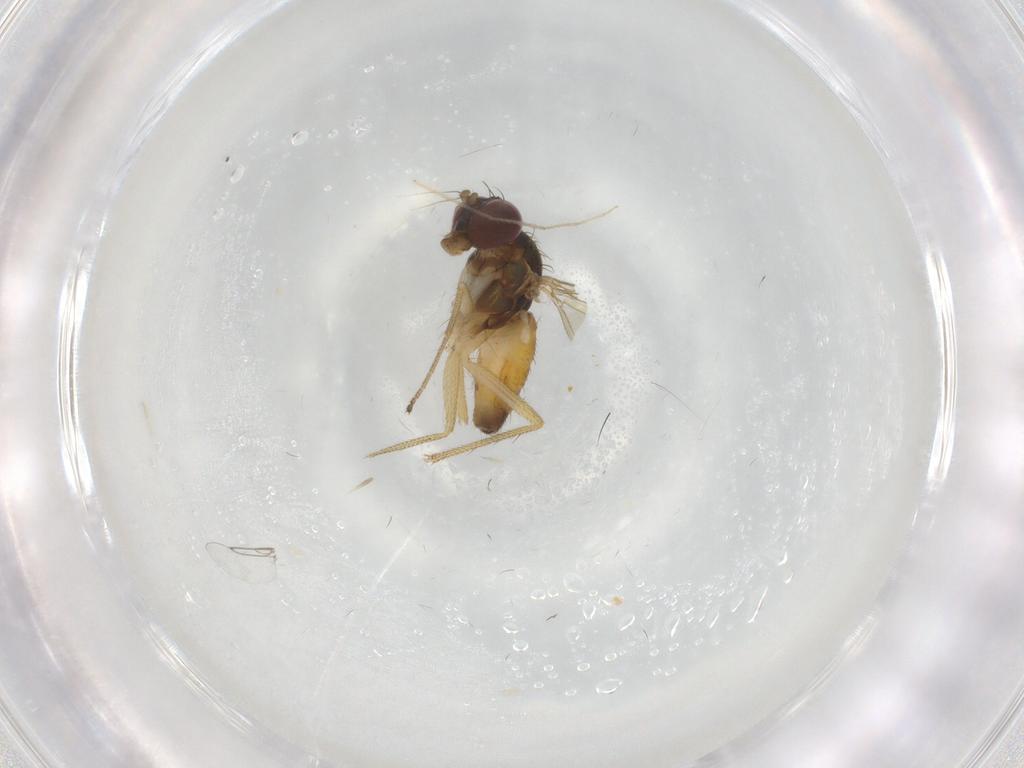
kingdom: Animalia
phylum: Arthropoda
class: Insecta
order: Diptera
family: Dolichopodidae
